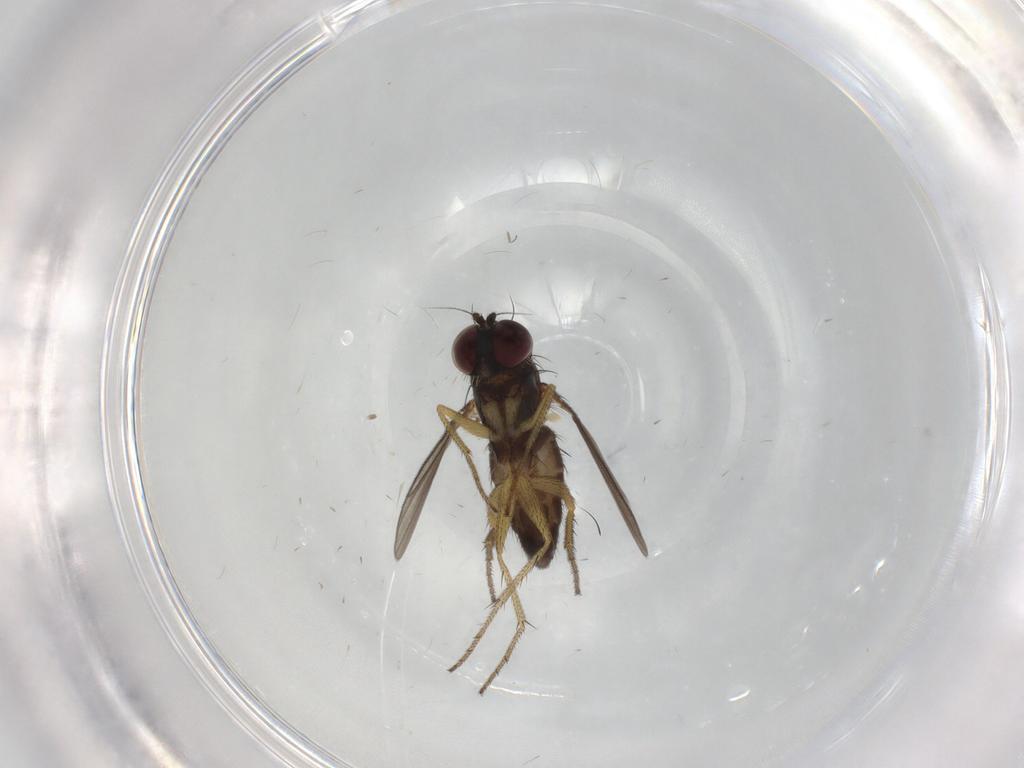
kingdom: Animalia
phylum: Arthropoda
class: Insecta
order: Diptera
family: Dolichopodidae
